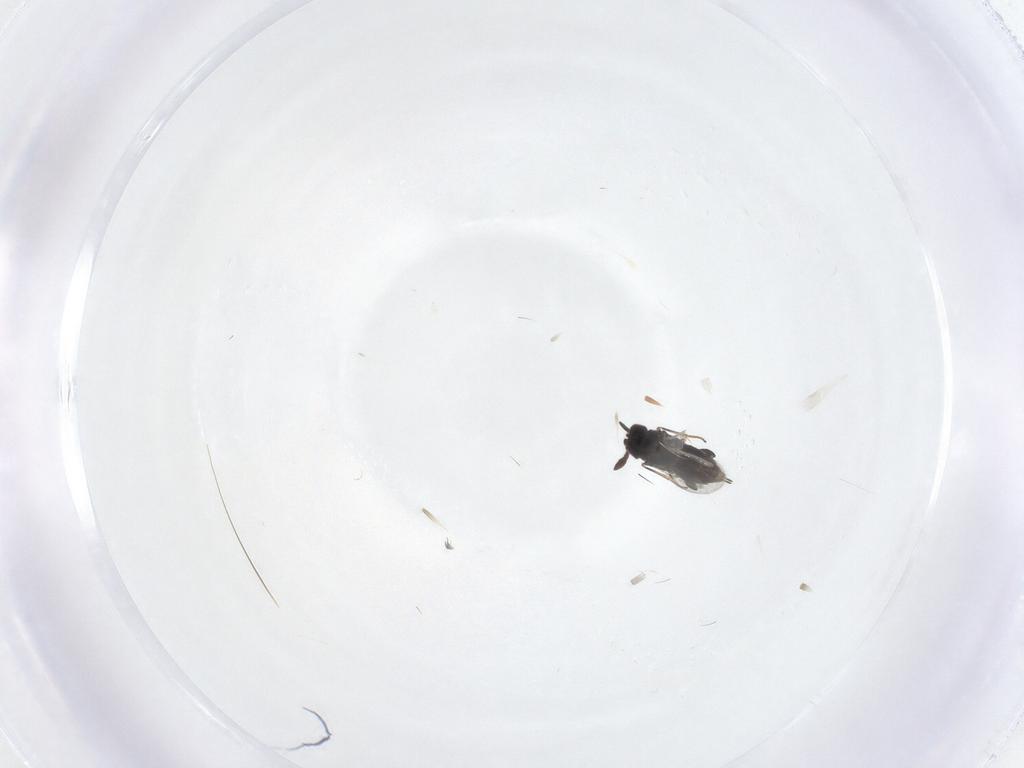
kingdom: Animalia
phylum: Arthropoda
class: Insecta
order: Hymenoptera
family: Encyrtidae
